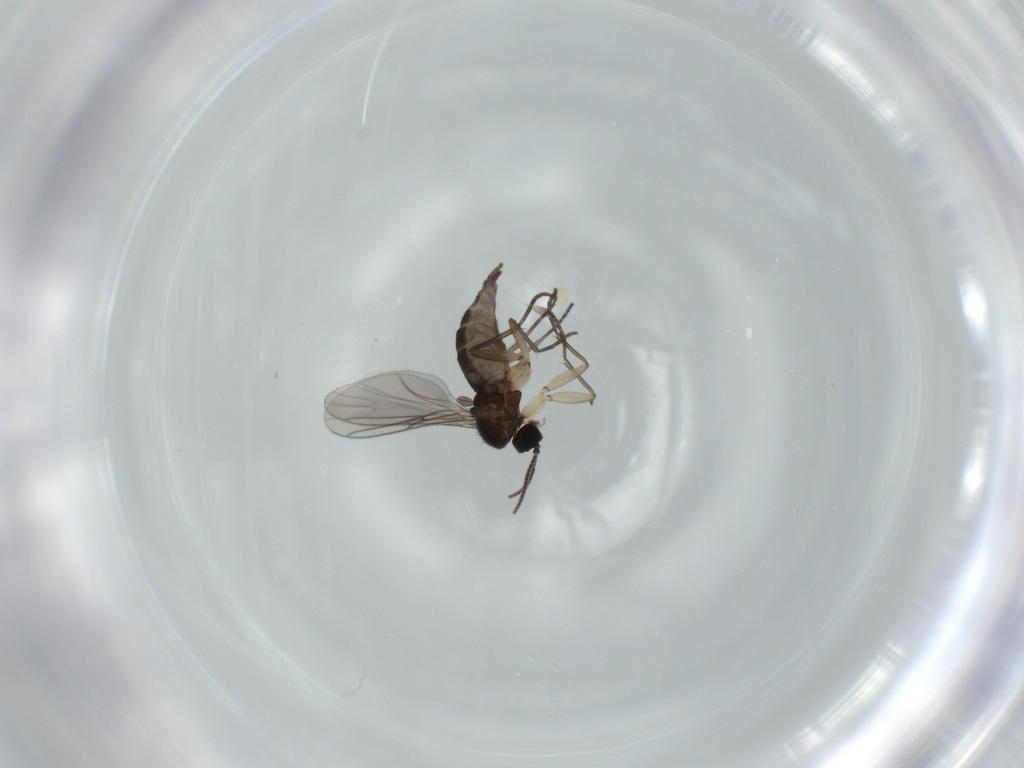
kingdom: Animalia
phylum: Arthropoda
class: Insecta
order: Diptera
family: Sciaridae
